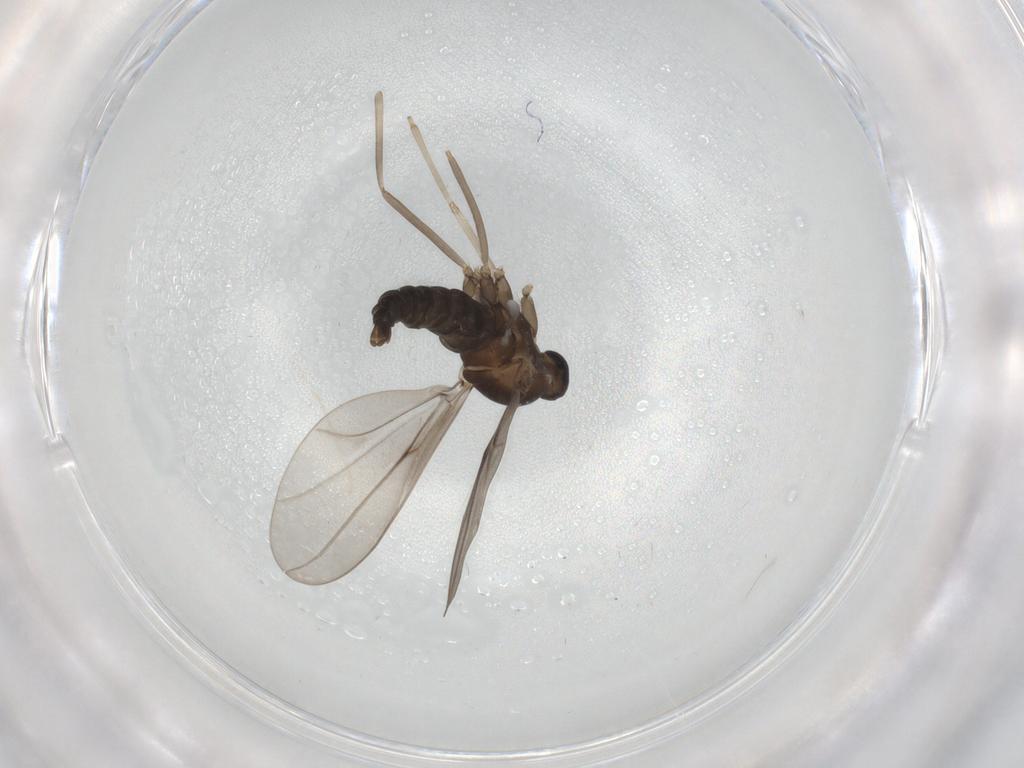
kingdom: Animalia
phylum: Arthropoda
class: Insecta
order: Diptera
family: Cecidomyiidae
